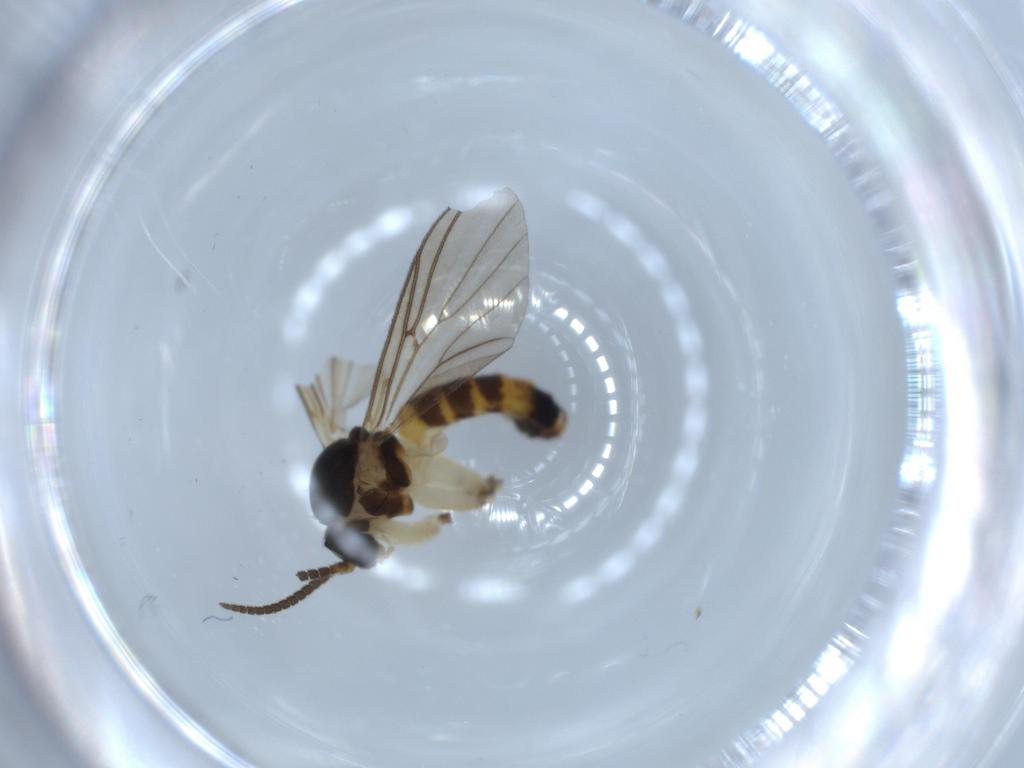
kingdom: Animalia
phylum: Arthropoda
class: Insecta
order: Diptera
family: Mycetophilidae
